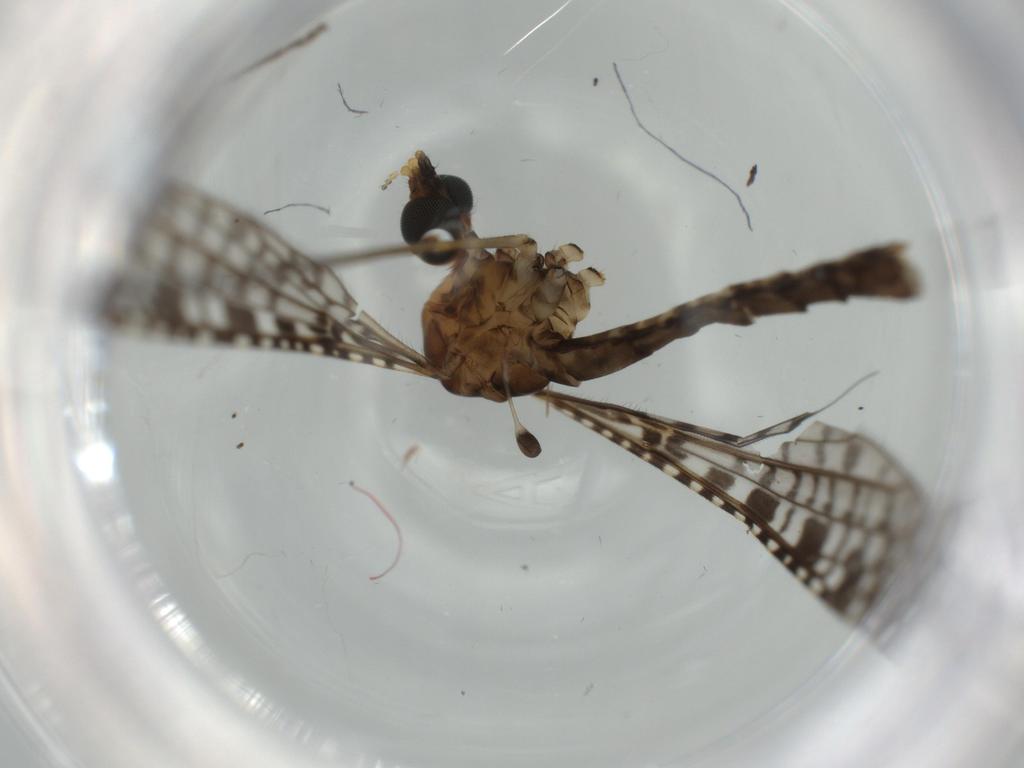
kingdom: Animalia
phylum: Arthropoda
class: Insecta
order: Diptera
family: Limoniidae
